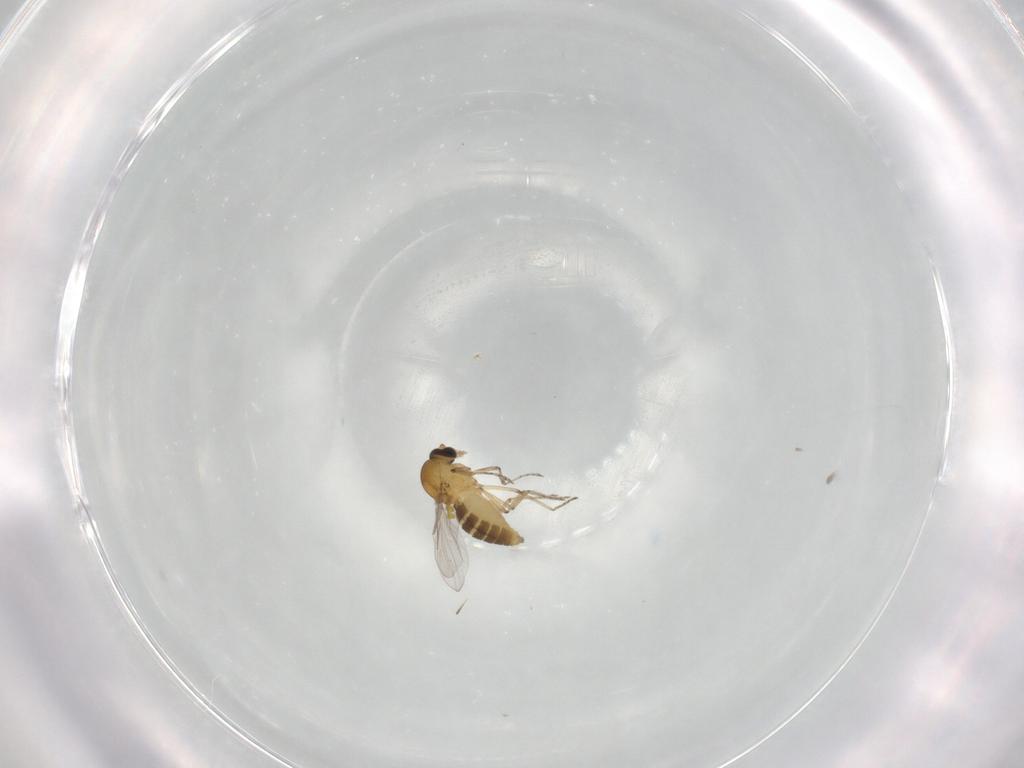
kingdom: Animalia
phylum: Arthropoda
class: Insecta
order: Diptera
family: Ceratopogonidae
